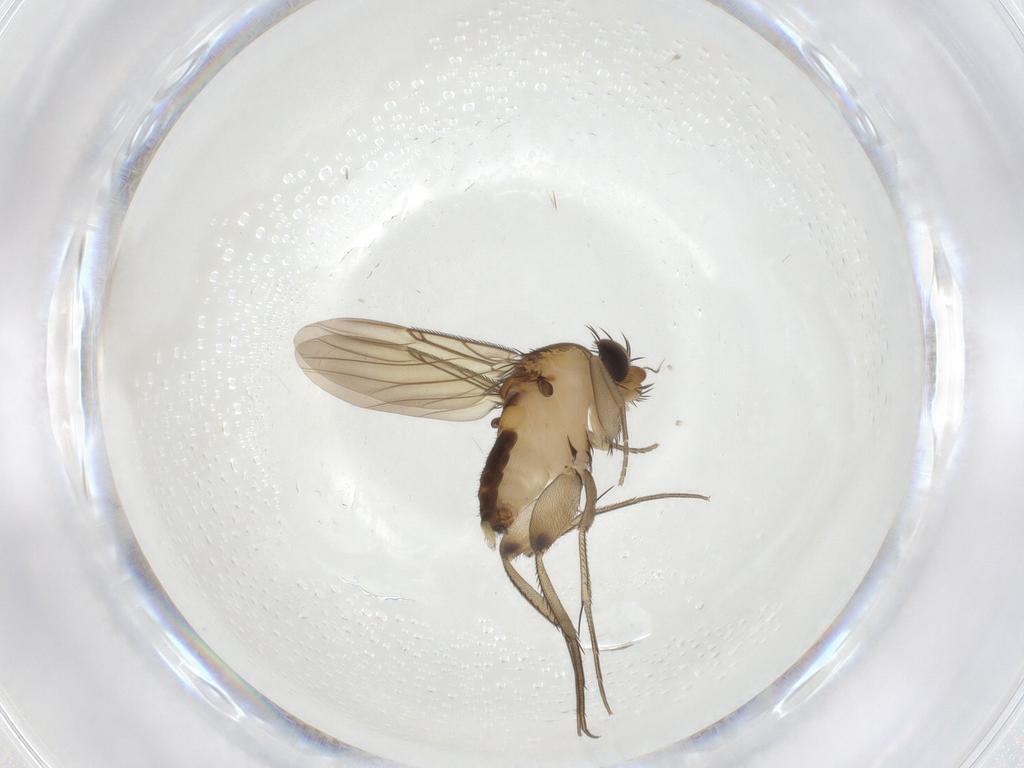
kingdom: Animalia
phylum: Arthropoda
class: Insecta
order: Diptera
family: Phoridae
